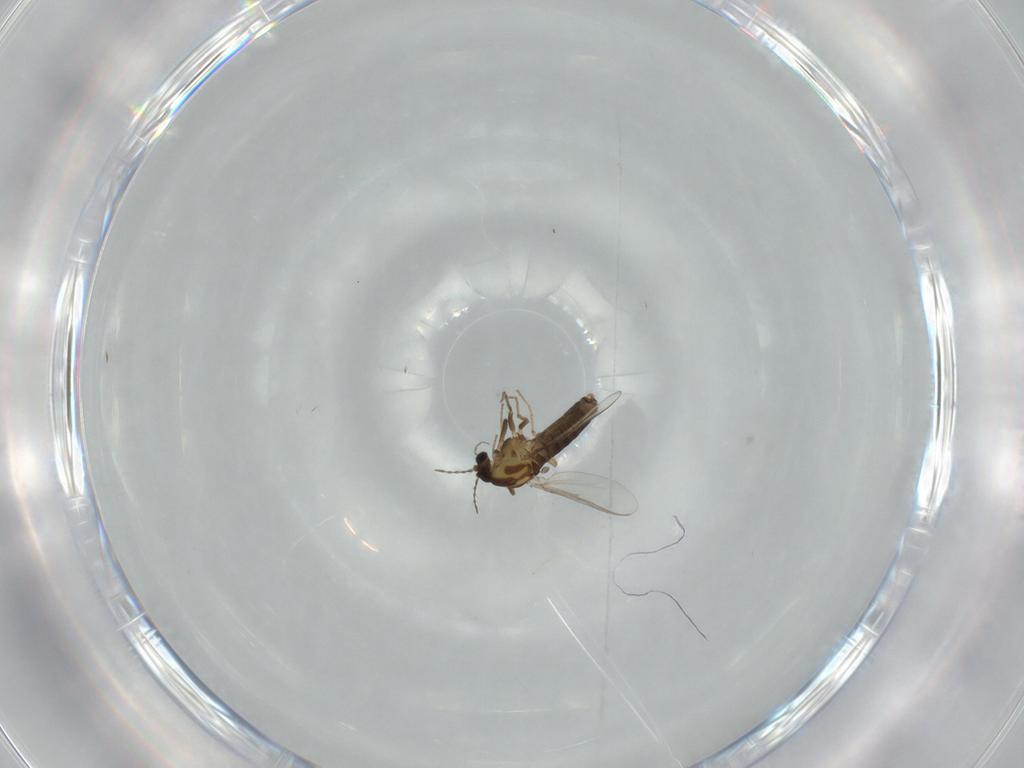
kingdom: Animalia
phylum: Arthropoda
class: Insecta
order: Diptera
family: Chironomidae
